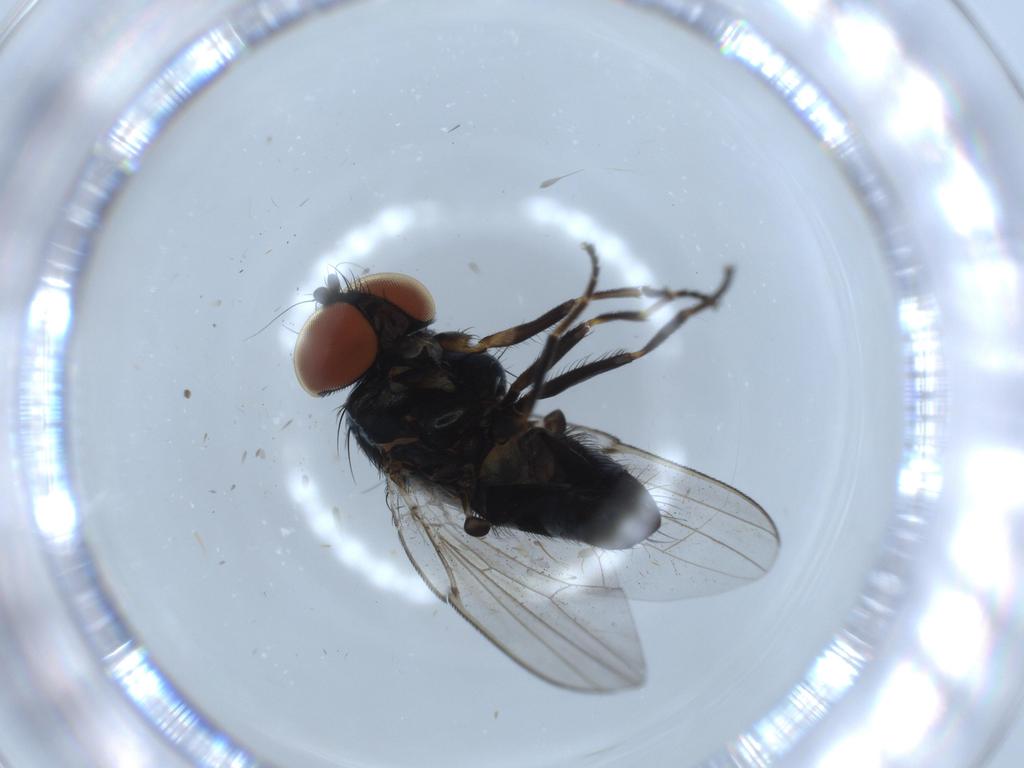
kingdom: Animalia
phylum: Arthropoda
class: Insecta
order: Diptera
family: Milichiidae
